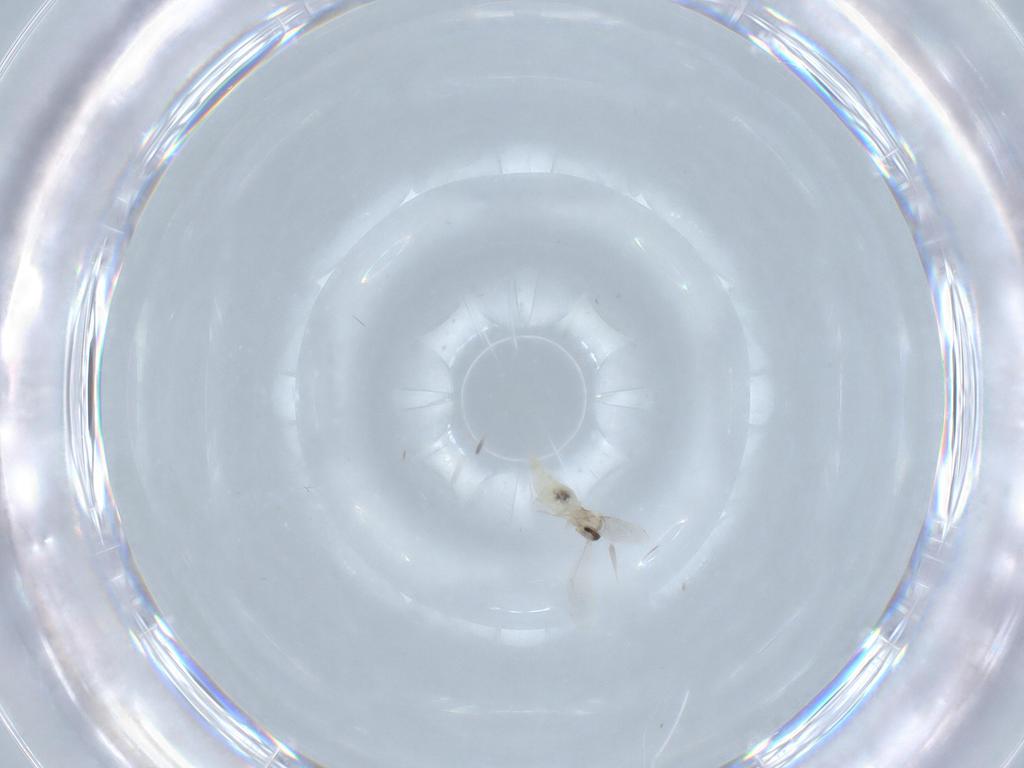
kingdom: Animalia
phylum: Arthropoda
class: Insecta
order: Diptera
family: Cecidomyiidae
